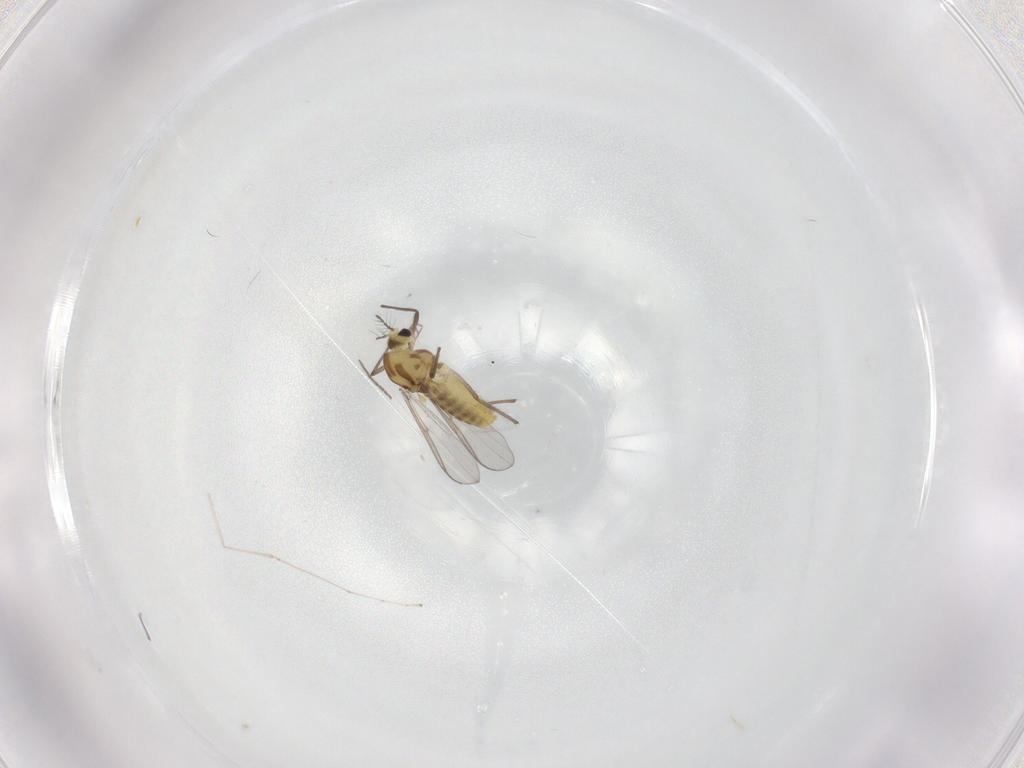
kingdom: Animalia
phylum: Arthropoda
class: Insecta
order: Diptera
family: Chironomidae
